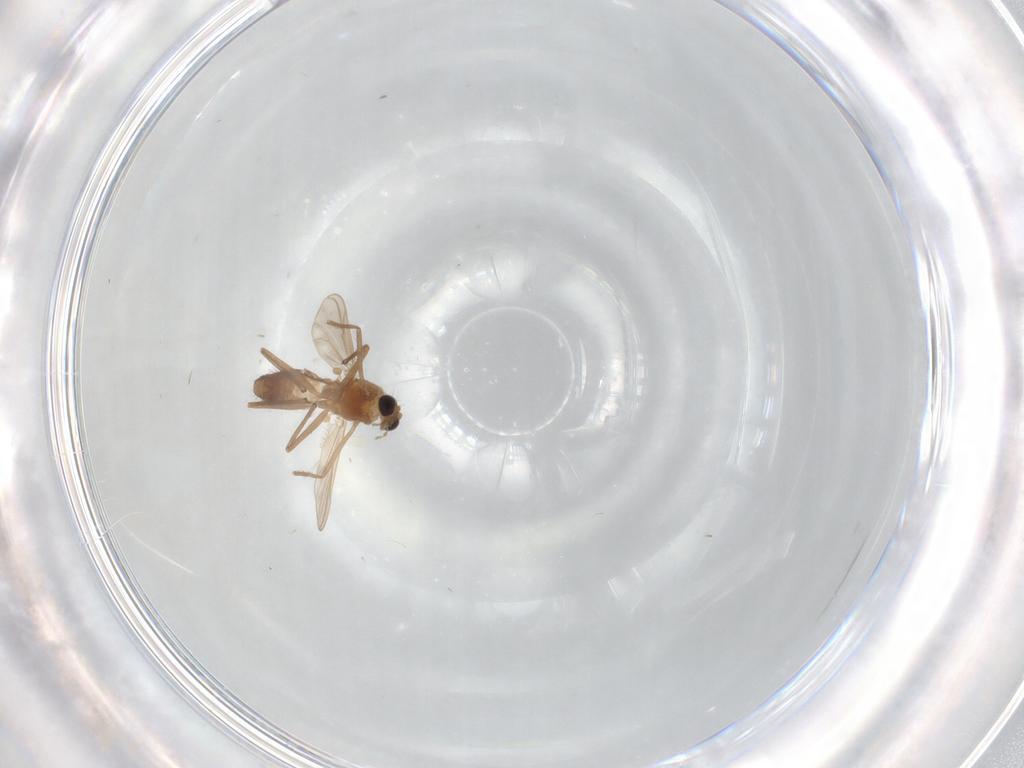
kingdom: Animalia
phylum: Arthropoda
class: Insecta
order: Diptera
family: Chironomidae
